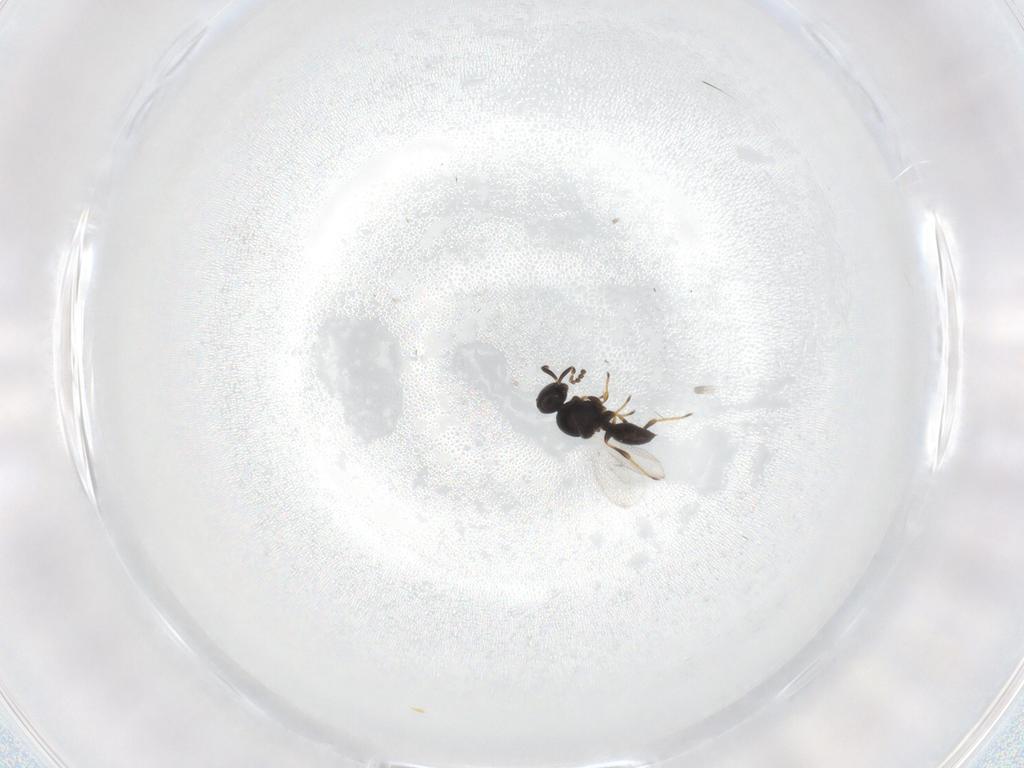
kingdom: Animalia
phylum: Arthropoda
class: Insecta
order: Hymenoptera
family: Platygastridae
